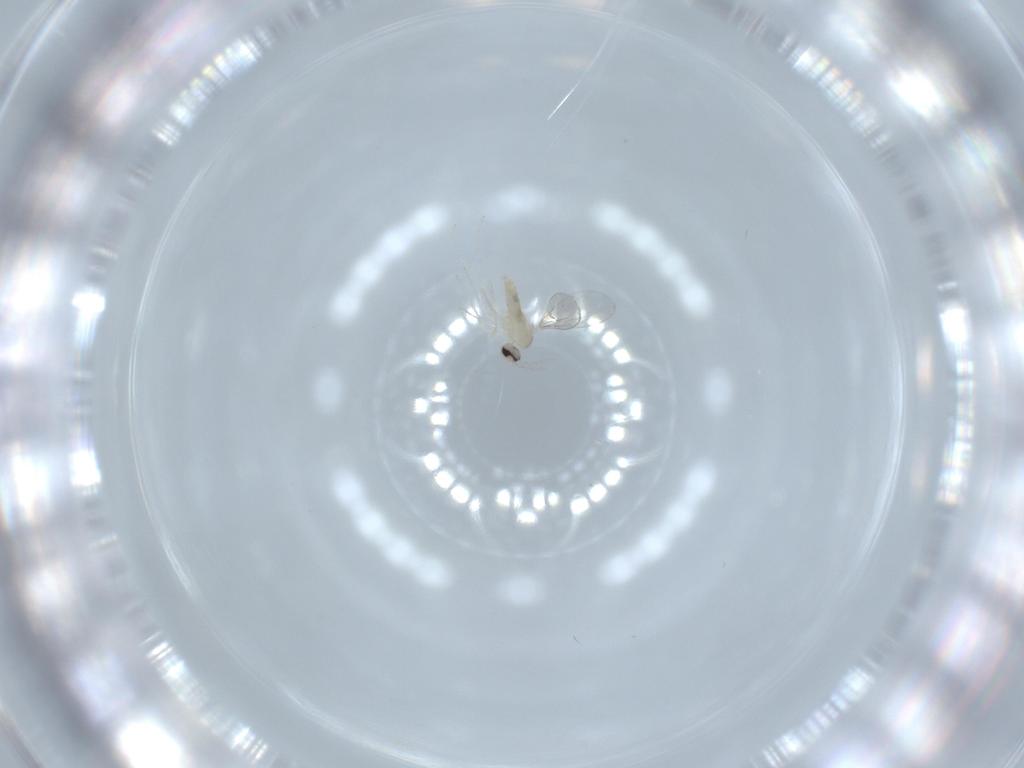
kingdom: Animalia
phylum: Arthropoda
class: Insecta
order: Diptera
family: Cecidomyiidae
